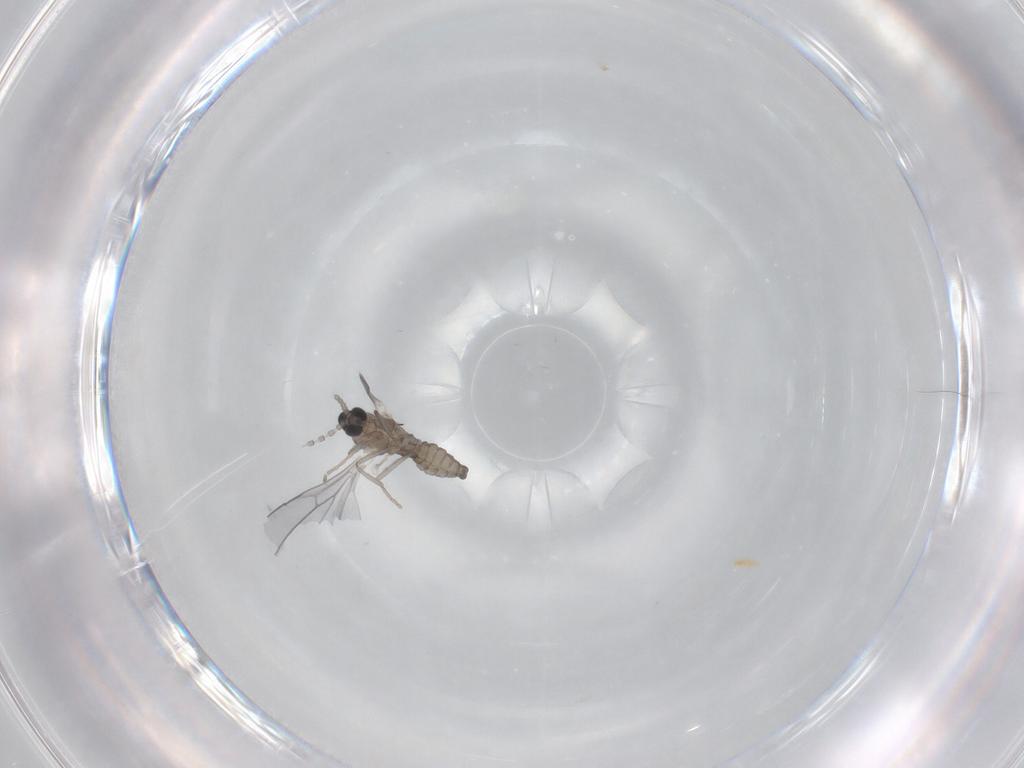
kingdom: Animalia
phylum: Arthropoda
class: Insecta
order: Diptera
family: Cecidomyiidae
